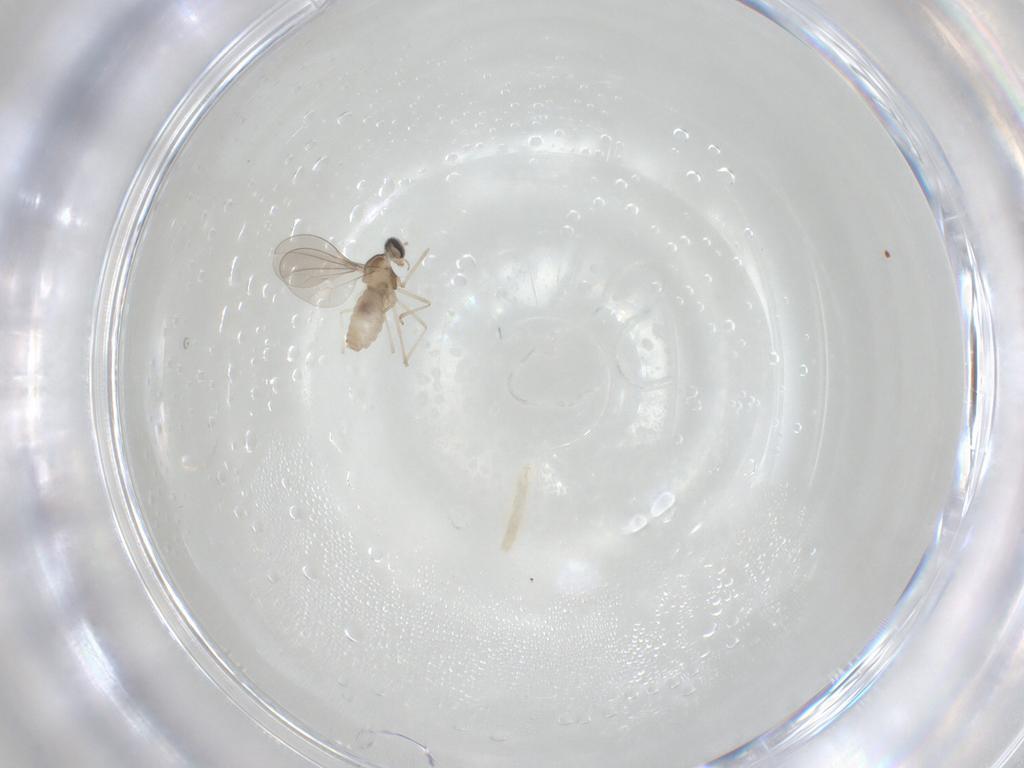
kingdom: Animalia
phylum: Arthropoda
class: Insecta
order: Diptera
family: Cecidomyiidae
